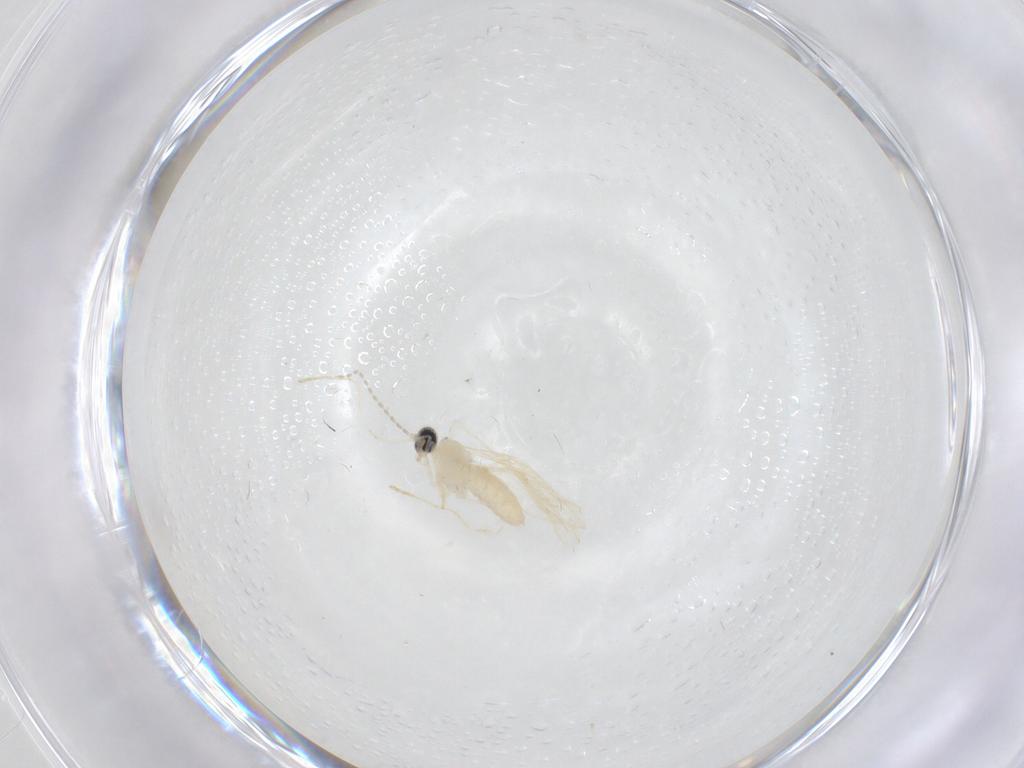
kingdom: Animalia
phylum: Arthropoda
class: Insecta
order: Diptera
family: Cecidomyiidae
